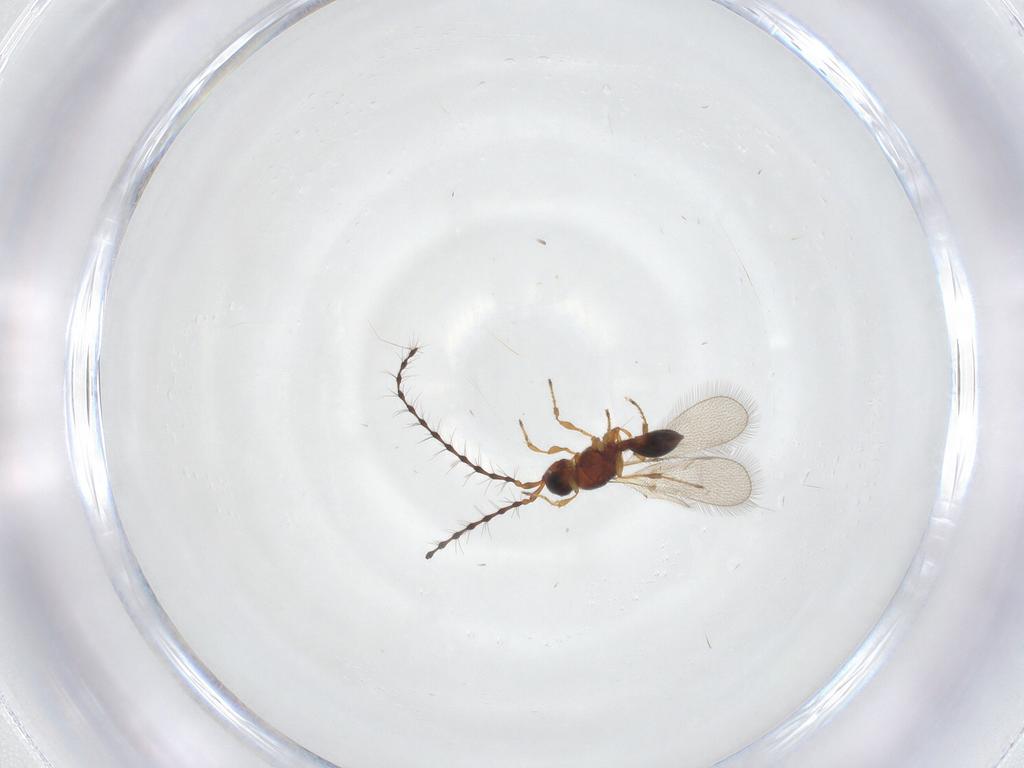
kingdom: Animalia
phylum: Arthropoda
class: Insecta
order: Hymenoptera
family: Diapriidae
